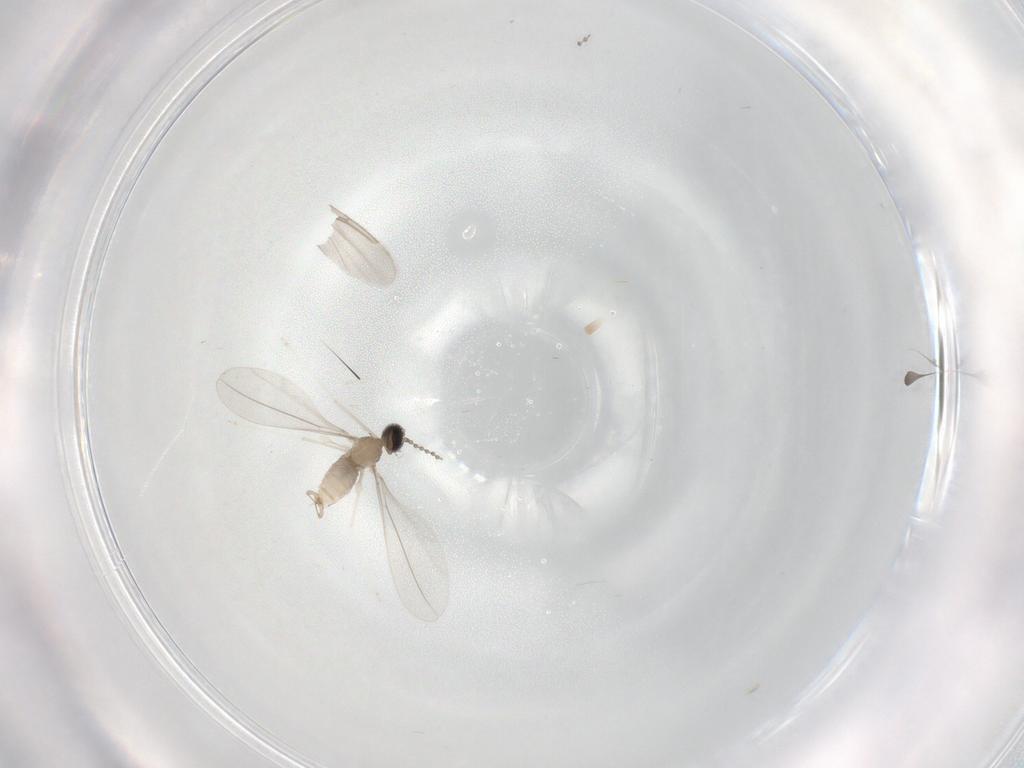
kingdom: Animalia
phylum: Arthropoda
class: Insecta
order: Diptera
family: Cecidomyiidae
